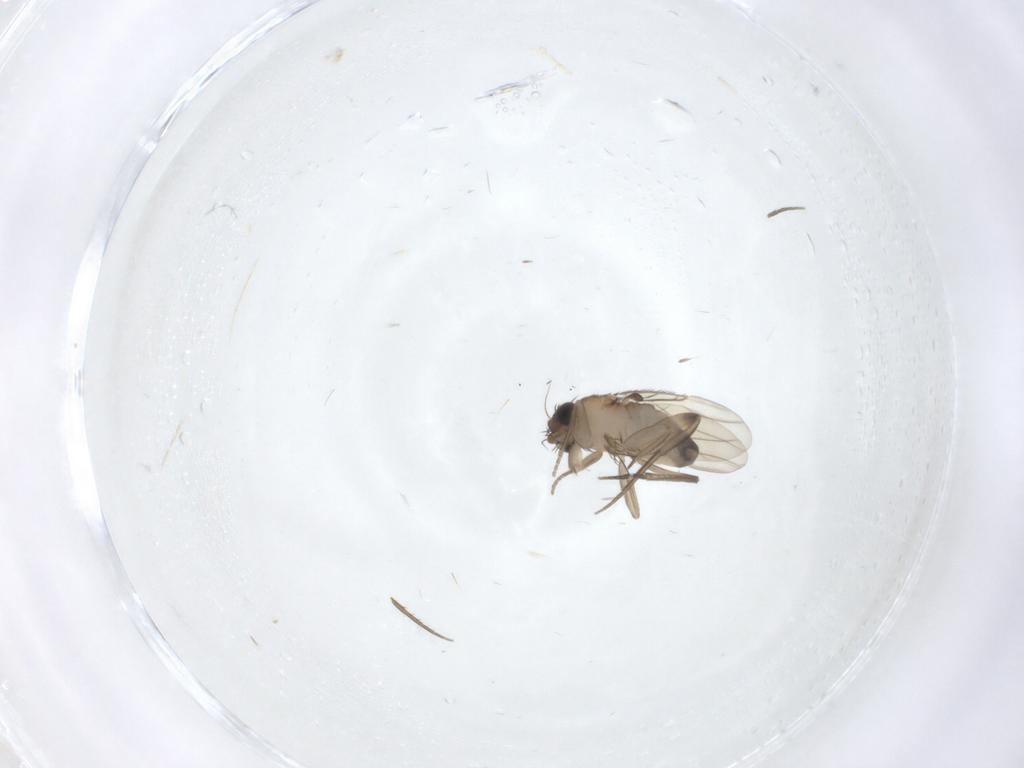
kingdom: Animalia
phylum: Arthropoda
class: Insecta
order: Diptera
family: Phoridae
